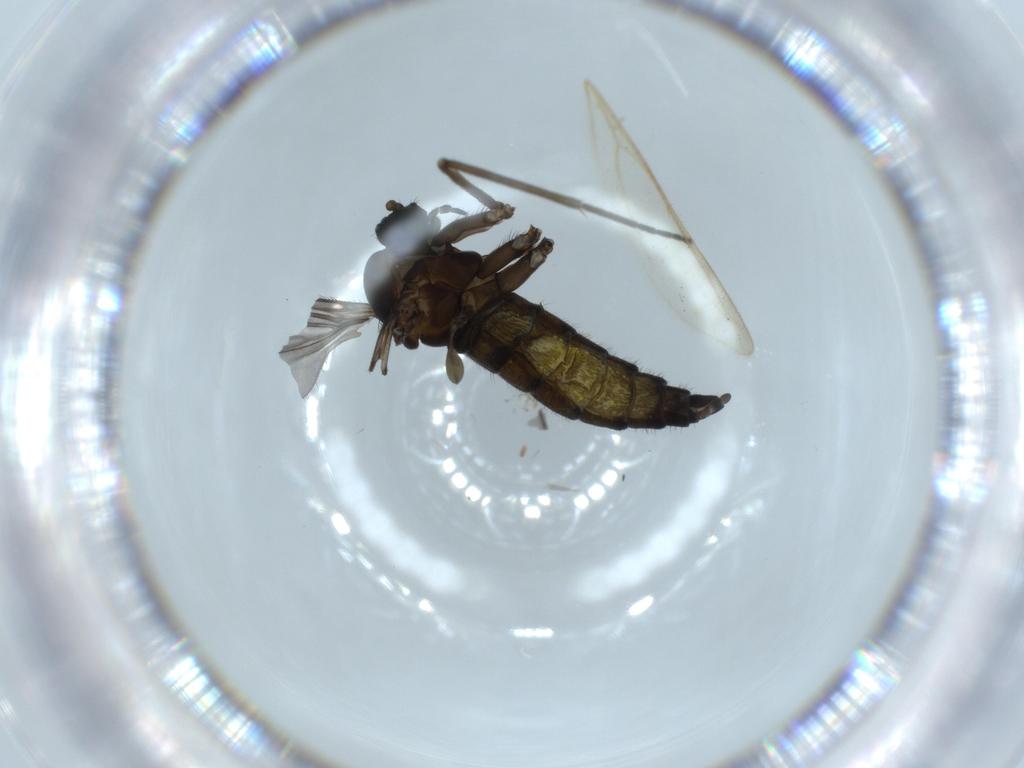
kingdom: Animalia
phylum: Arthropoda
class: Insecta
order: Diptera
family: Sciaridae
